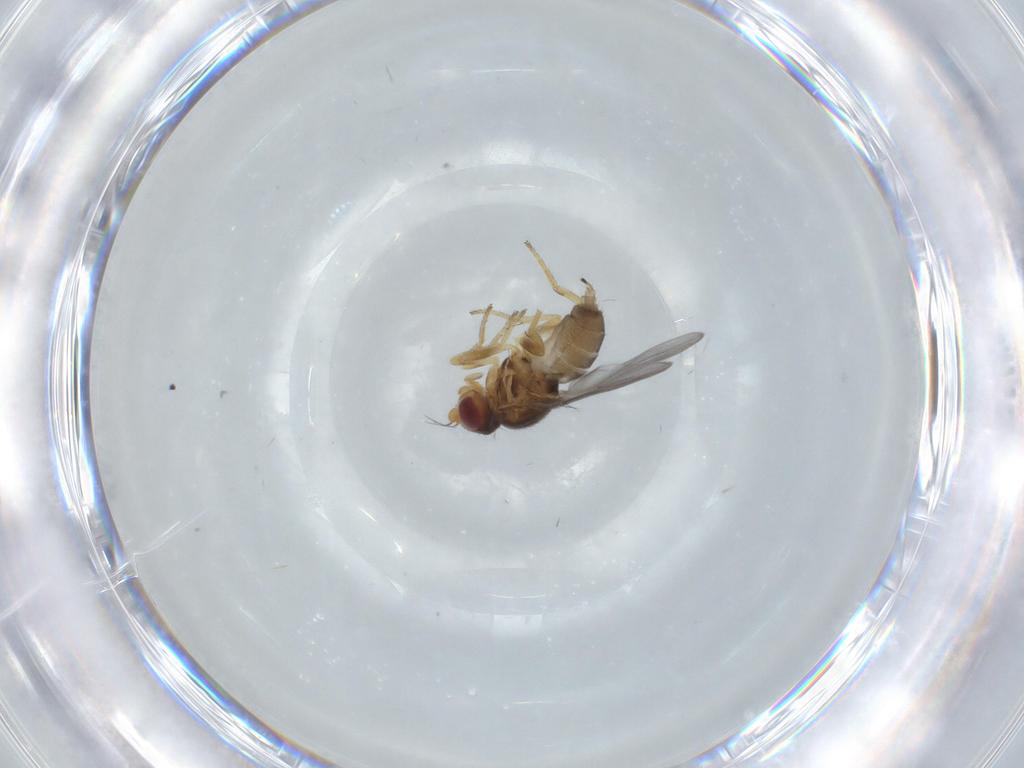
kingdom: Animalia
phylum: Arthropoda
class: Insecta
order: Diptera
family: Chloropidae
